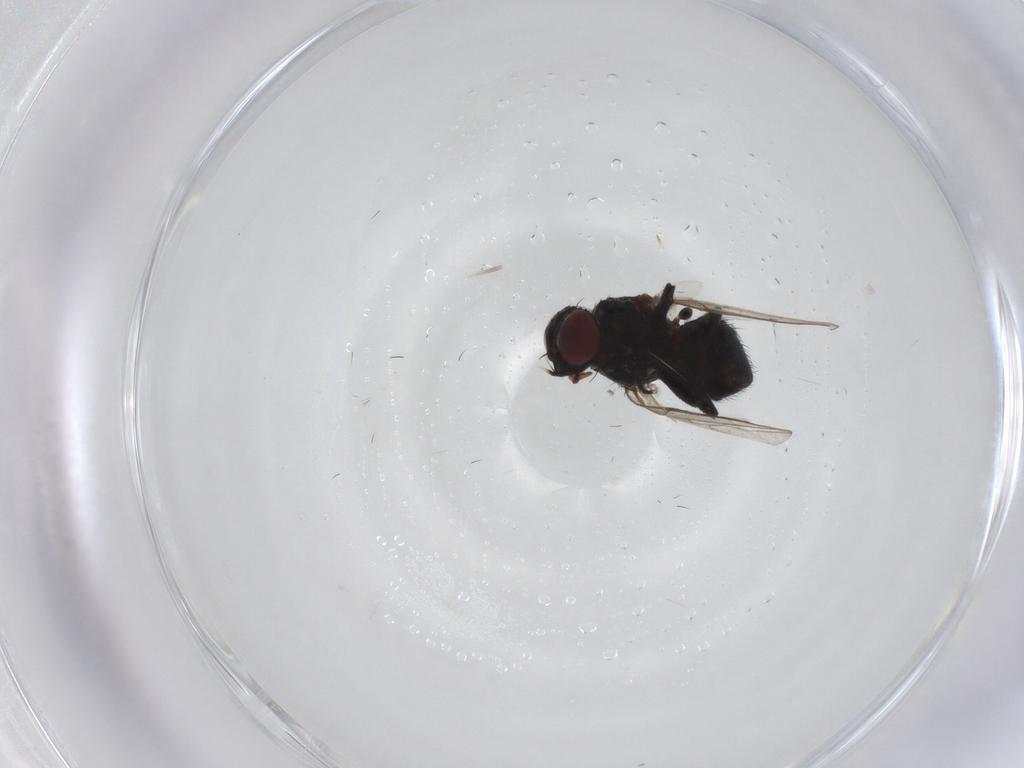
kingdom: Animalia
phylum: Arthropoda
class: Insecta
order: Diptera
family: Agromyzidae
